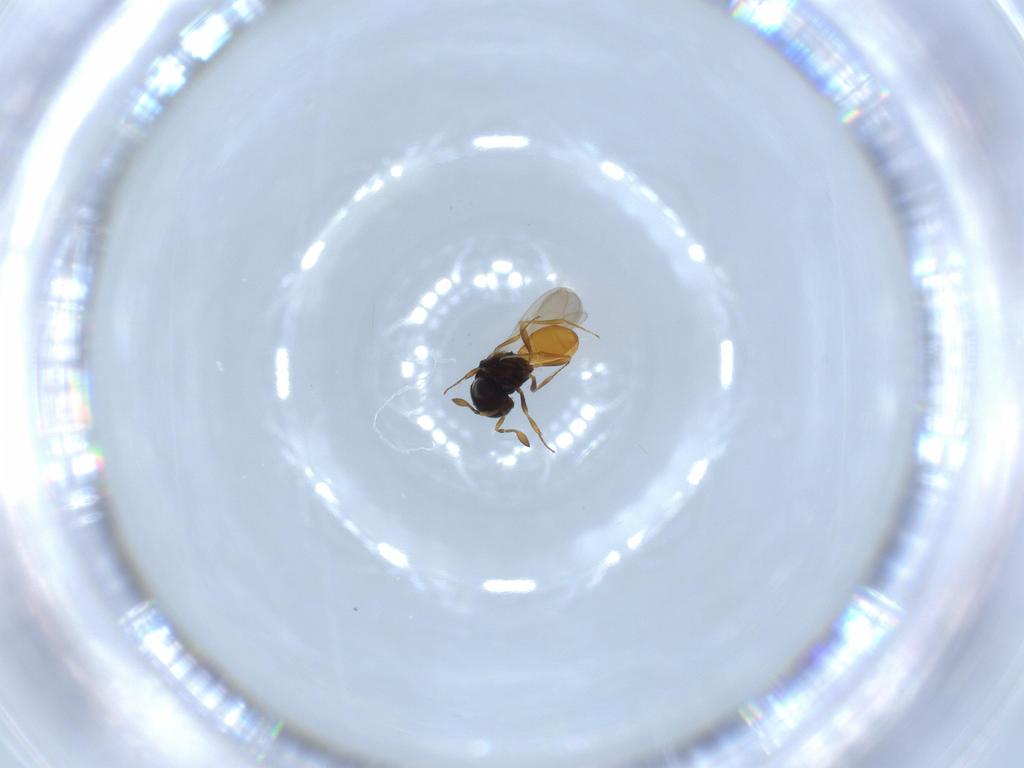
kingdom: Animalia
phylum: Arthropoda
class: Insecta
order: Hymenoptera
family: Scelionidae
